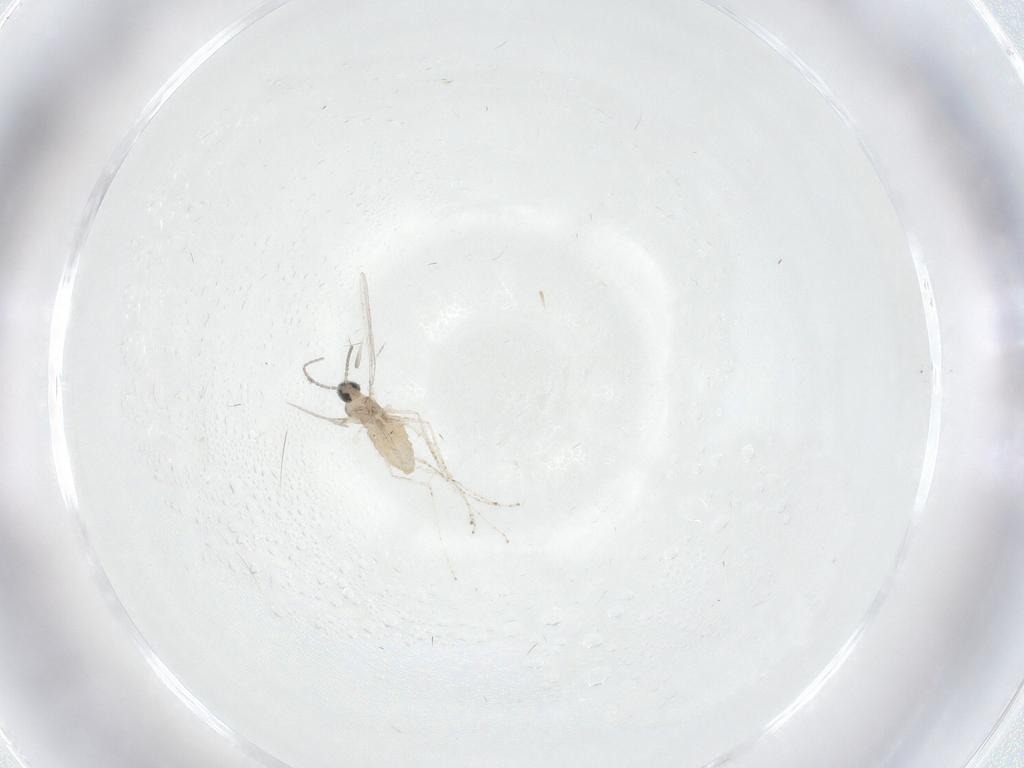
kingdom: Animalia
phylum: Arthropoda
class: Insecta
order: Diptera
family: Cecidomyiidae
